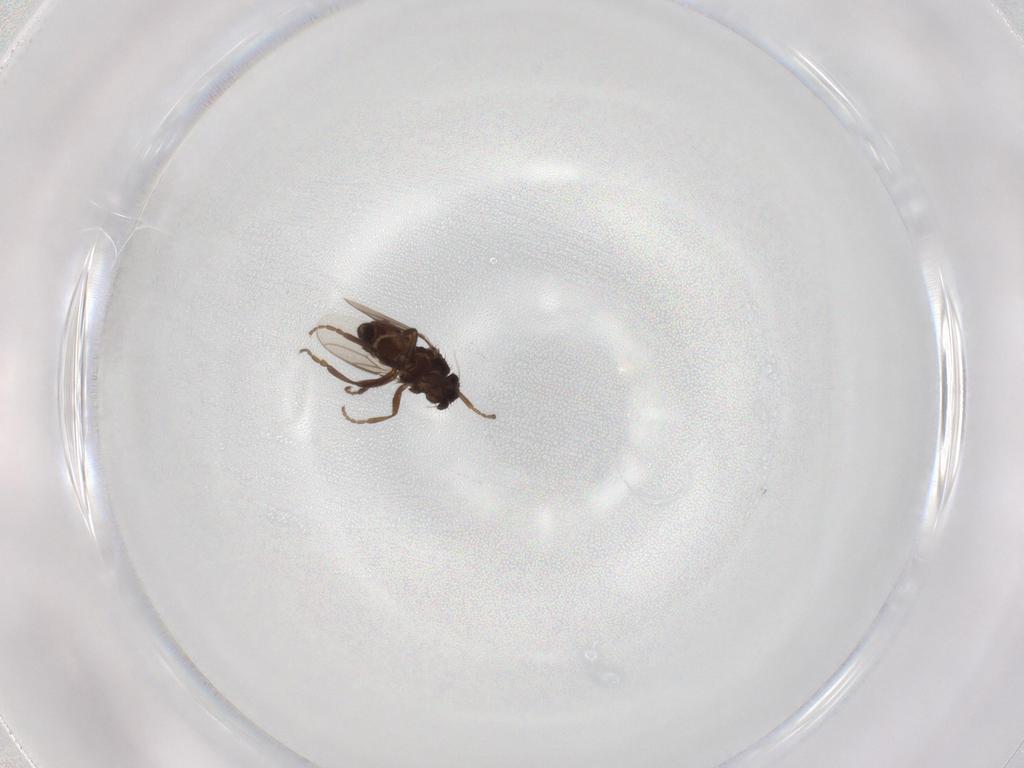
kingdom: Animalia
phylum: Arthropoda
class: Insecta
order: Diptera
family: Sphaeroceridae
